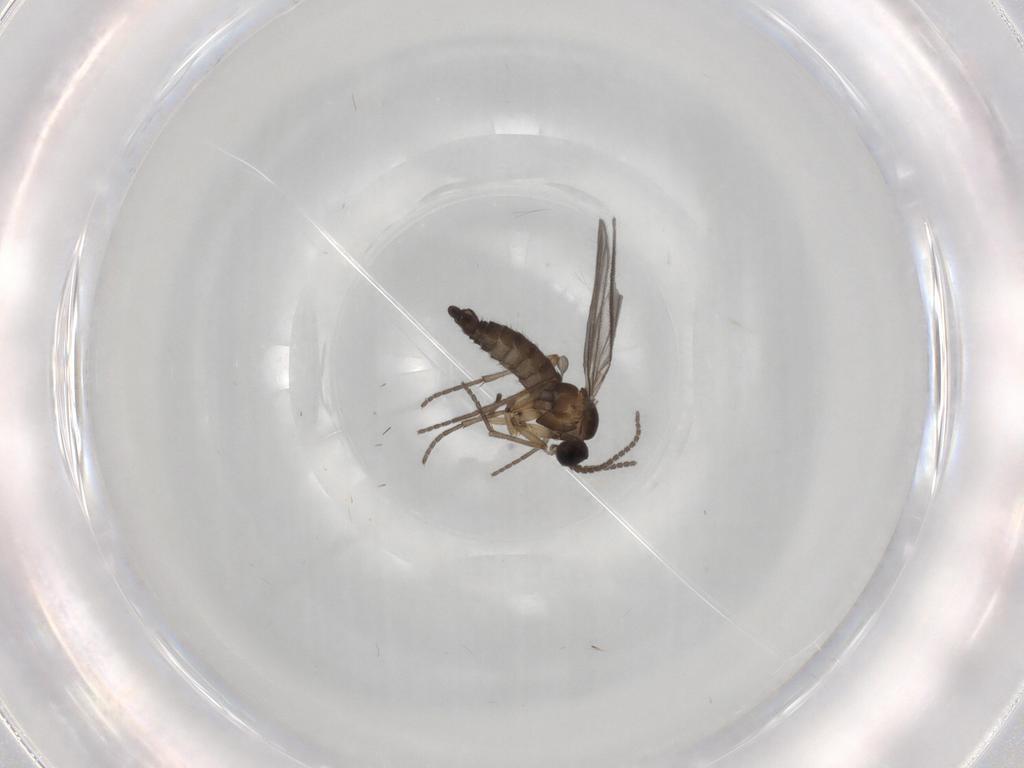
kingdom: Animalia
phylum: Arthropoda
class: Insecta
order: Diptera
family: Sciaridae
